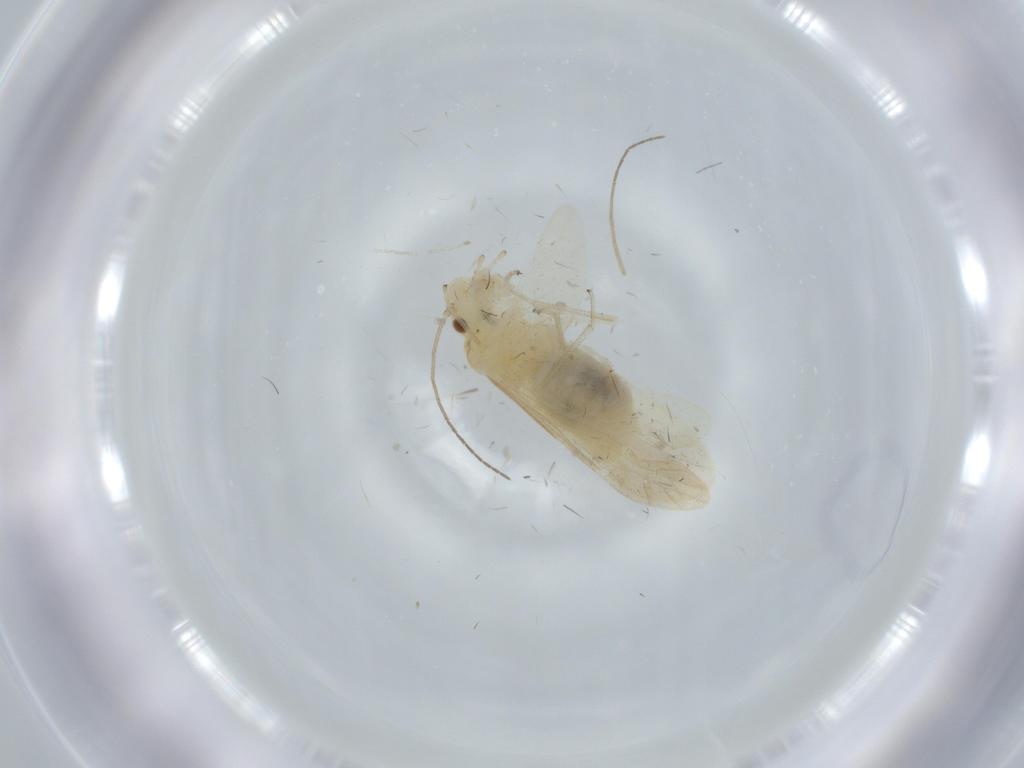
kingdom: Animalia
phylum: Arthropoda
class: Insecta
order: Psocodea
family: Caeciliusidae
